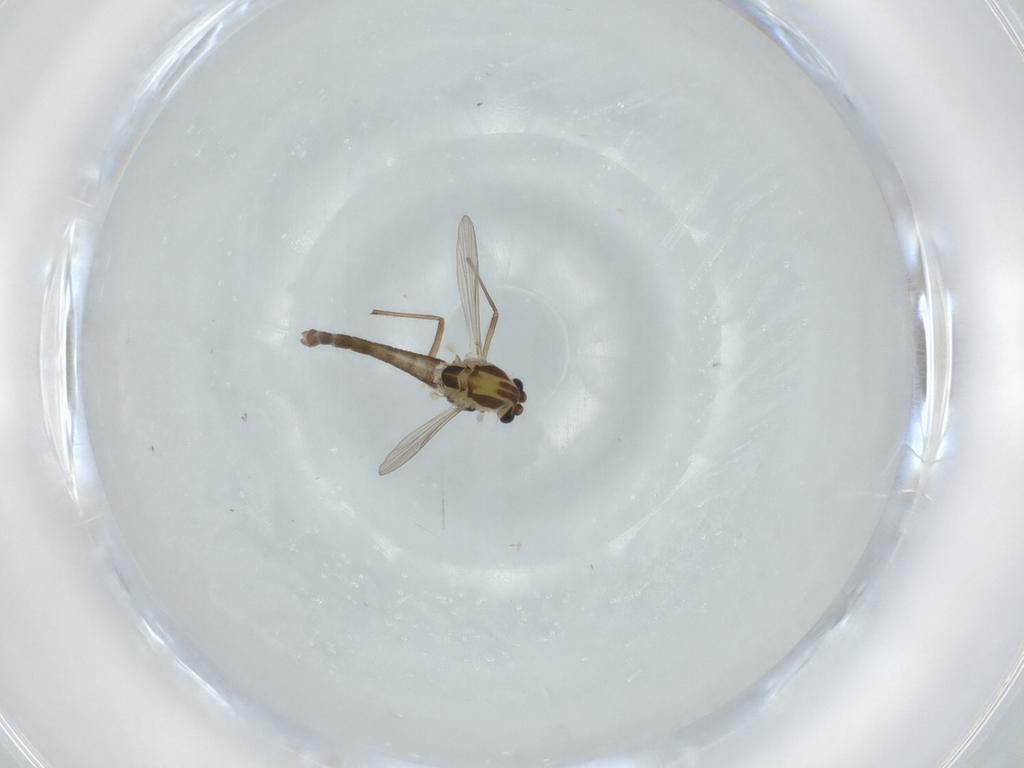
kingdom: Animalia
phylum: Arthropoda
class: Insecta
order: Diptera
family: Chironomidae
